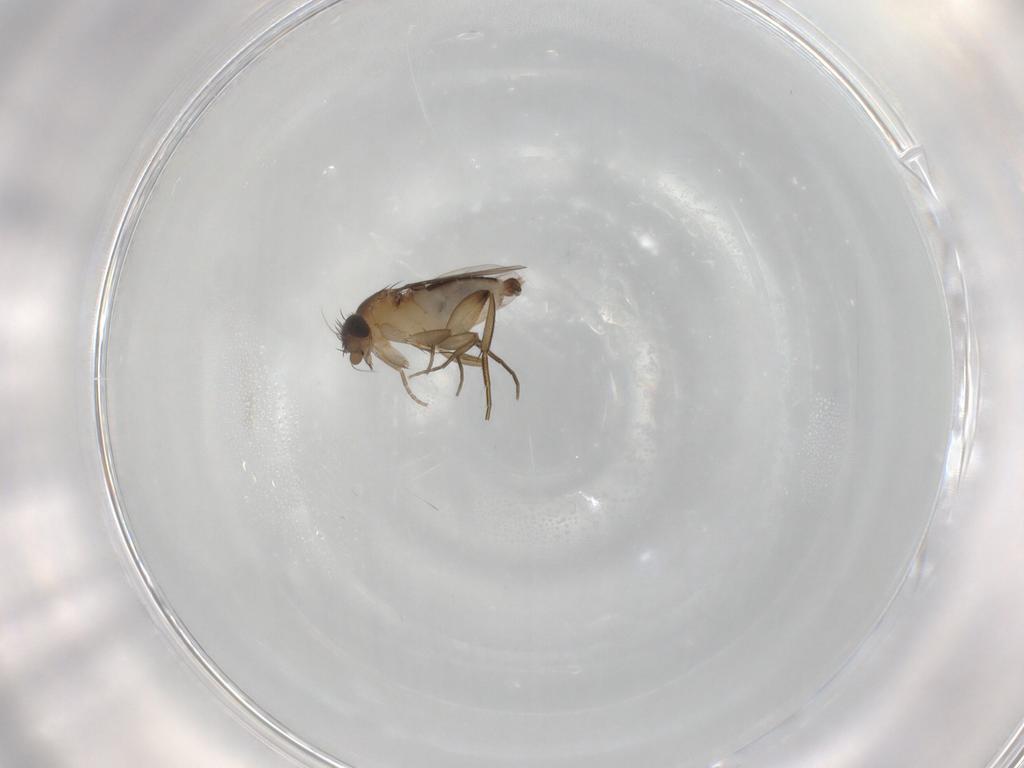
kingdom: Animalia
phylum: Arthropoda
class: Insecta
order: Diptera
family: Phoridae
